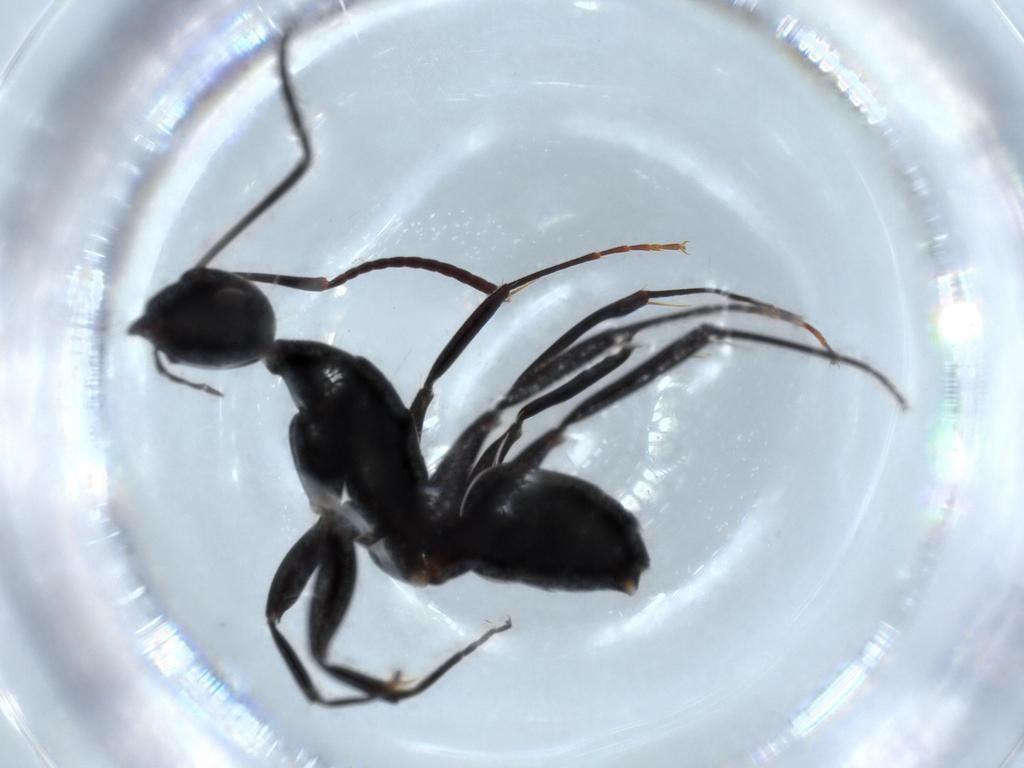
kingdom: Animalia
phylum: Arthropoda
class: Insecta
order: Hymenoptera
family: Formicidae
